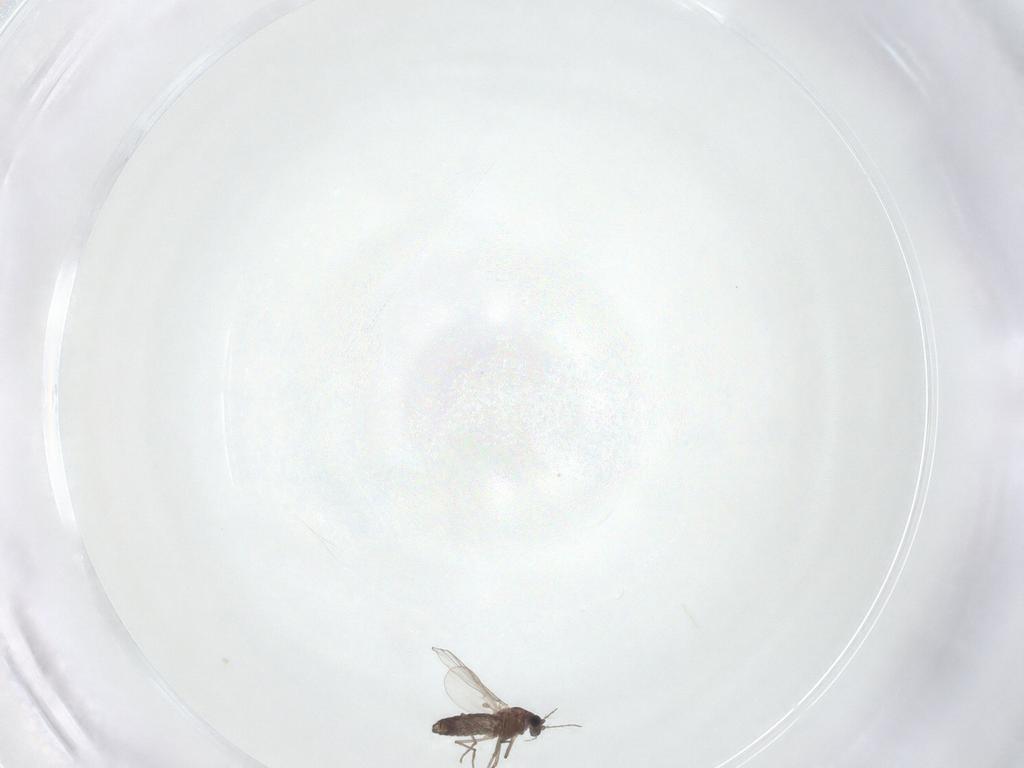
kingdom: Animalia
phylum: Arthropoda
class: Insecta
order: Diptera
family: Chironomidae
